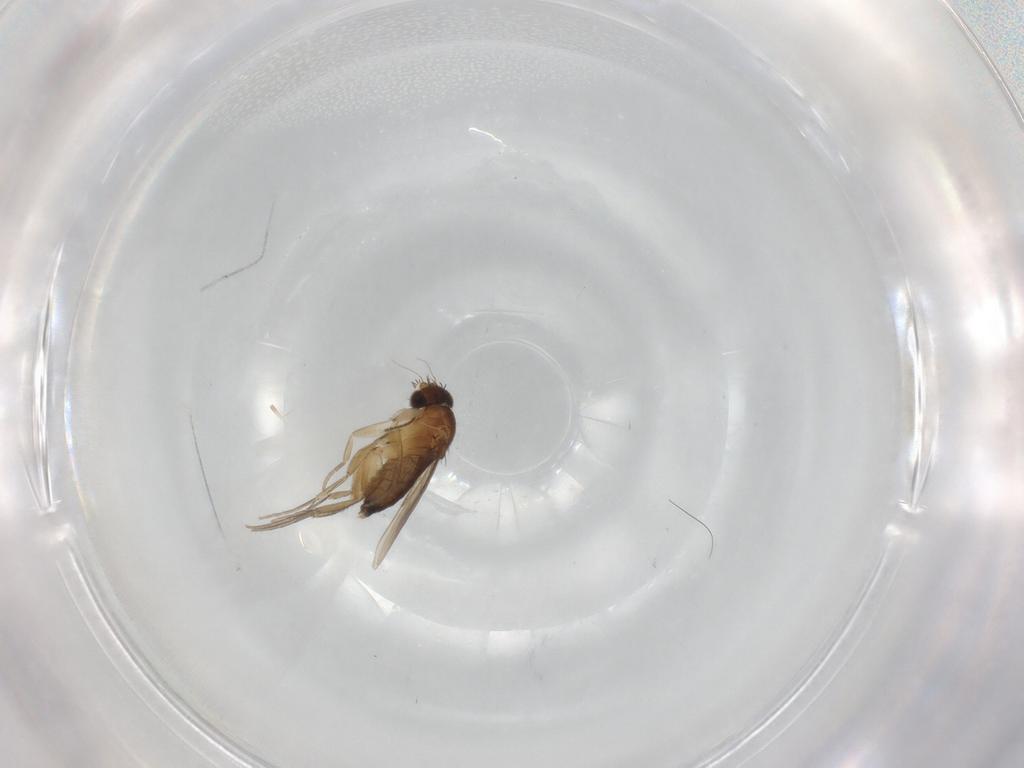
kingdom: Animalia
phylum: Arthropoda
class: Insecta
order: Diptera
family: Phoridae
